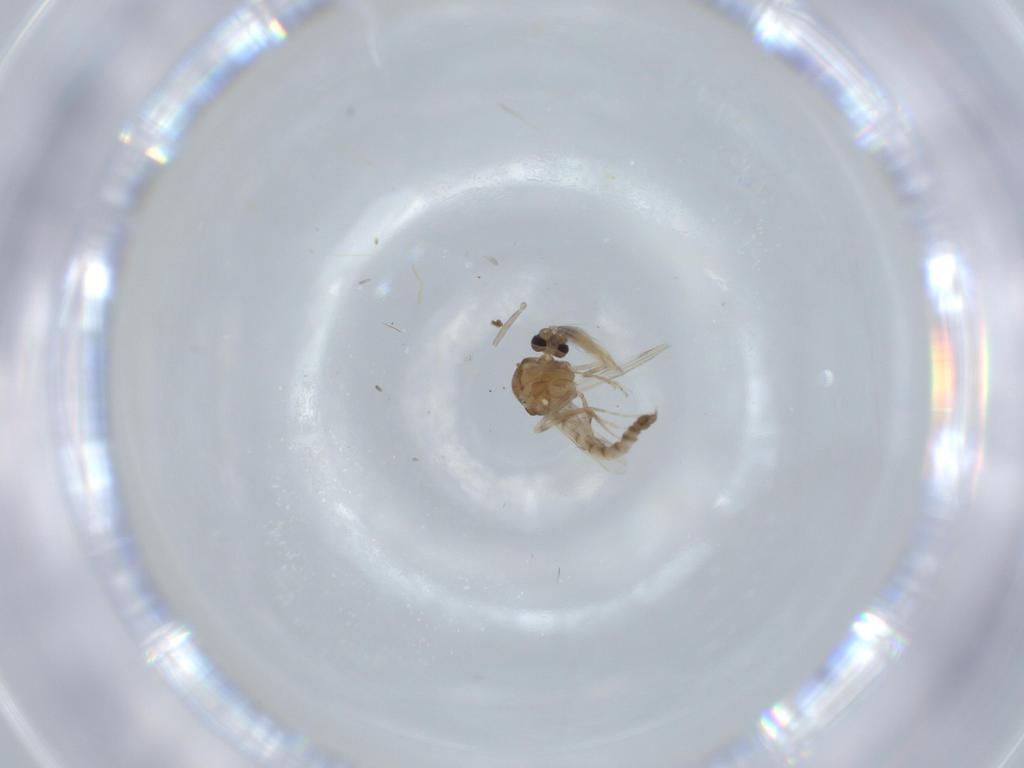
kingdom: Animalia
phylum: Arthropoda
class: Insecta
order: Diptera
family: Ceratopogonidae
